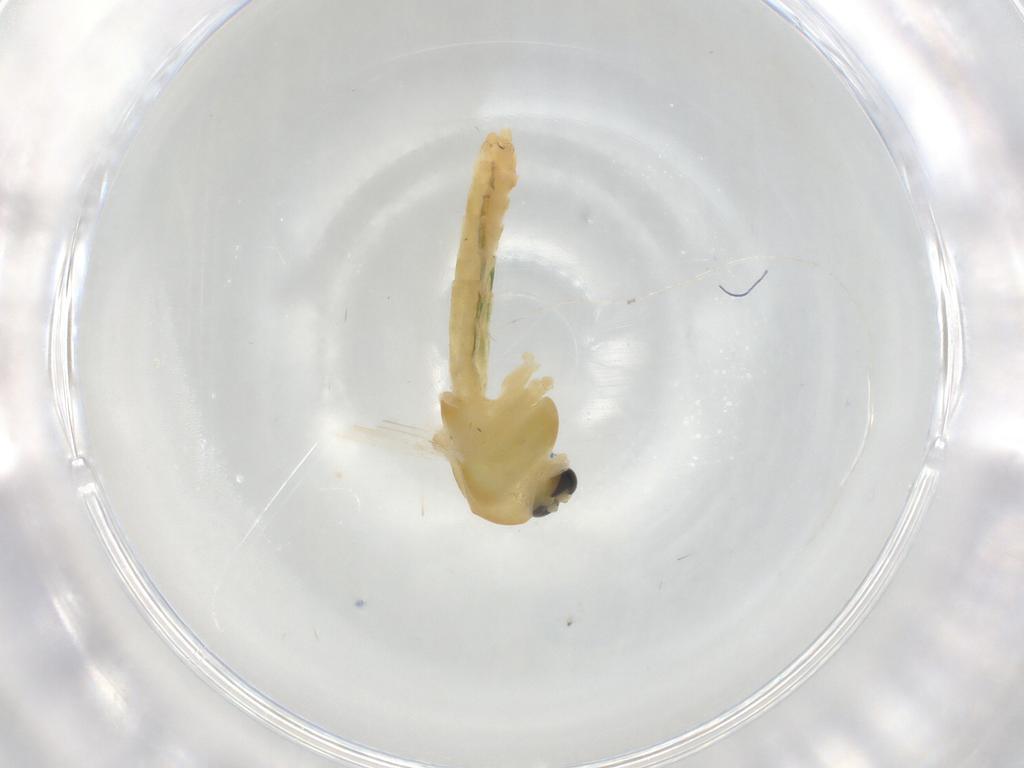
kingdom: Animalia
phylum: Arthropoda
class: Insecta
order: Diptera
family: Chironomidae
